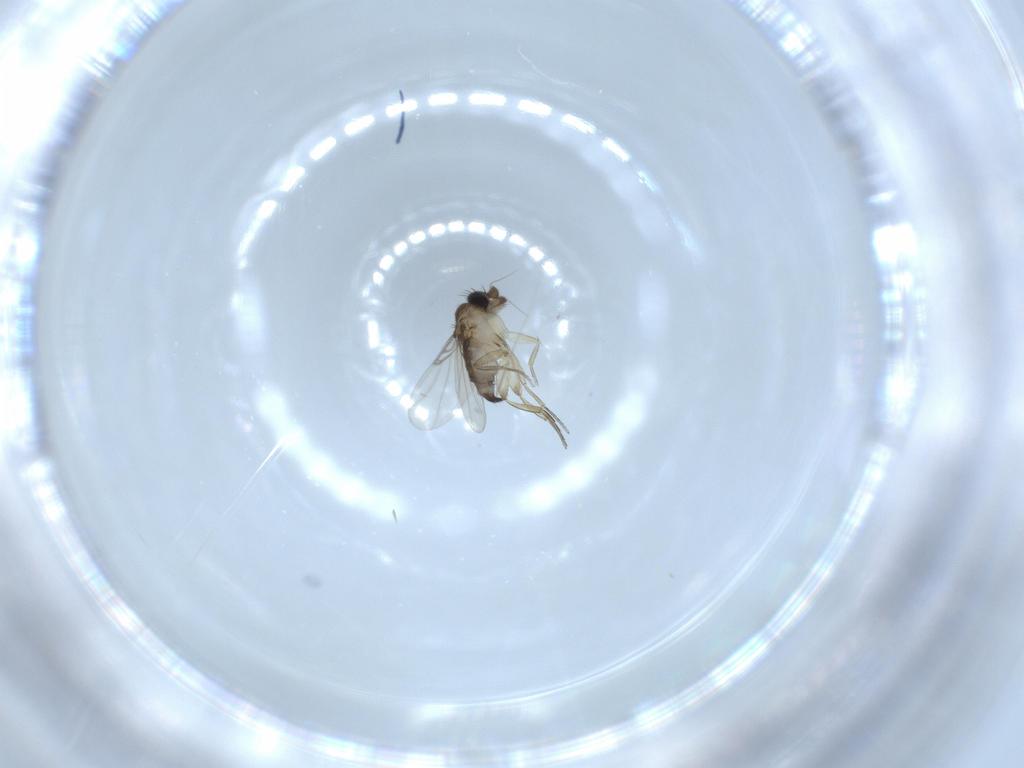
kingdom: Animalia
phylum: Arthropoda
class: Insecta
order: Diptera
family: Phoridae
